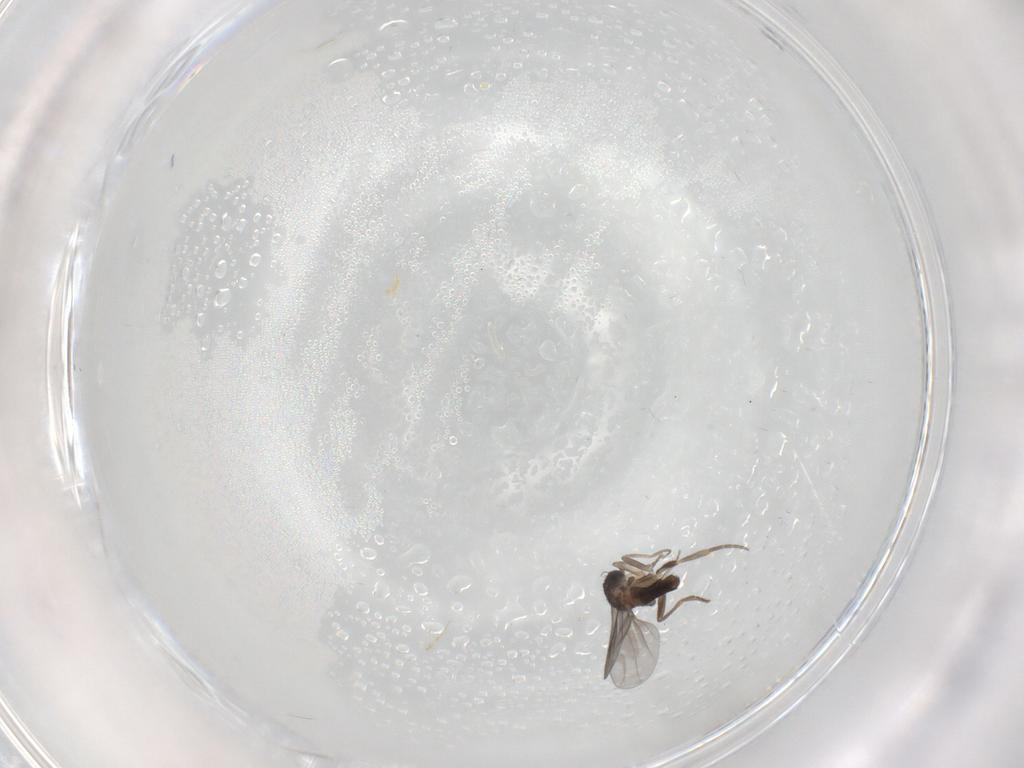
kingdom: Animalia
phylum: Arthropoda
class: Insecta
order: Diptera
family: Cecidomyiidae
